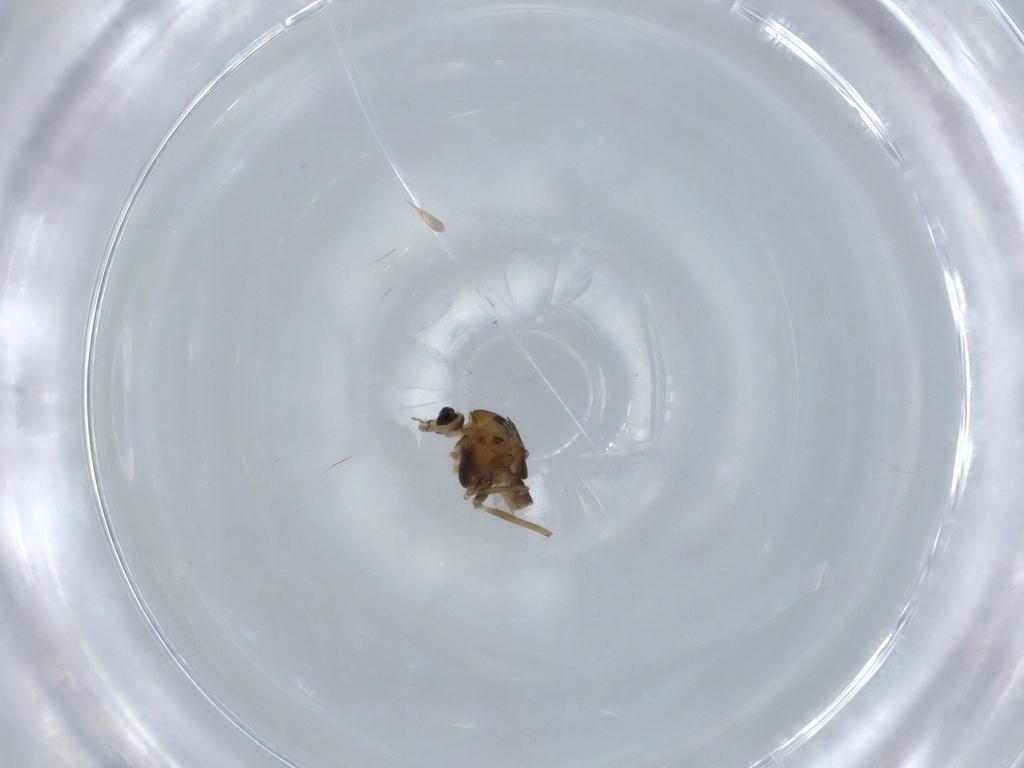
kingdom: Animalia
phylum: Arthropoda
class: Insecta
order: Diptera
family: Chironomidae
